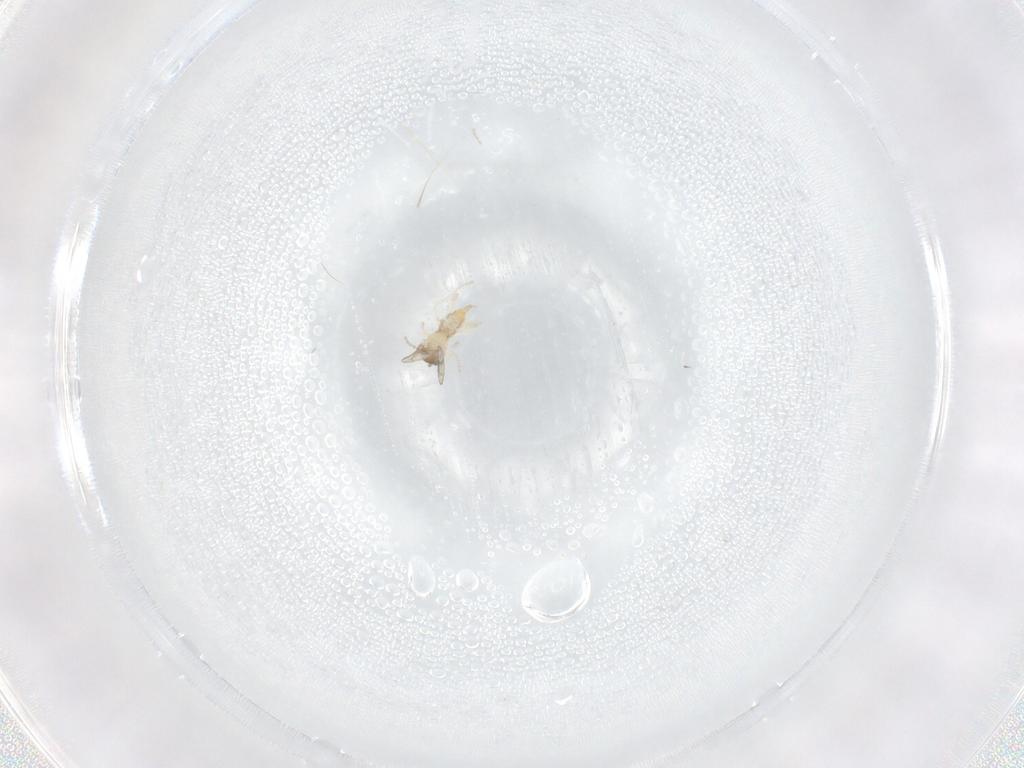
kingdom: Animalia
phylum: Arthropoda
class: Insecta
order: Diptera
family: Cecidomyiidae
